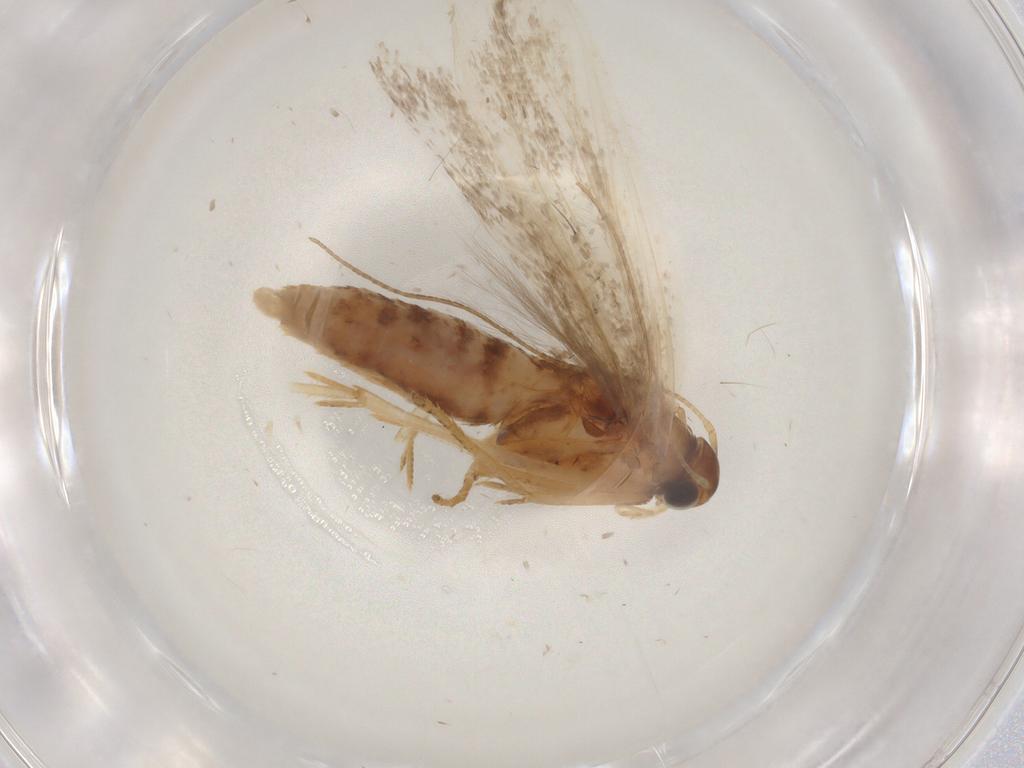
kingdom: Animalia
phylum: Arthropoda
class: Insecta
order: Lepidoptera
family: Gelechiidae
